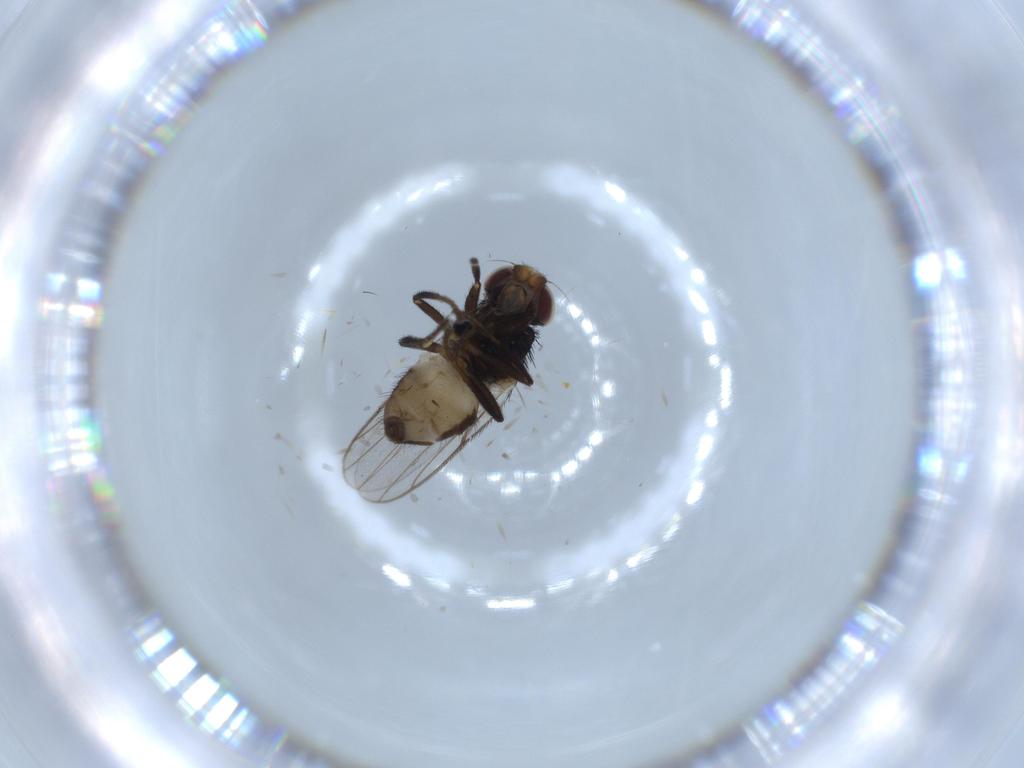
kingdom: Animalia
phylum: Arthropoda
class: Insecta
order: Diptera
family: Chloropidae
